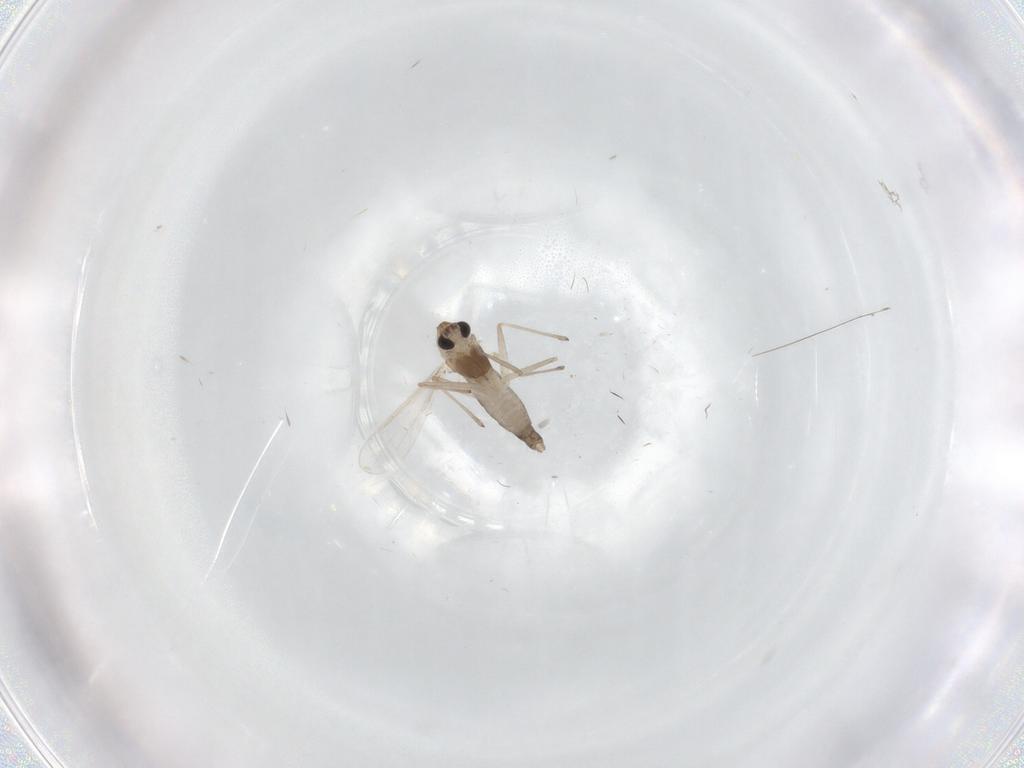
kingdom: Animalia
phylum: Arthropoda
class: Insecta
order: Diptera
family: Chironomidae
